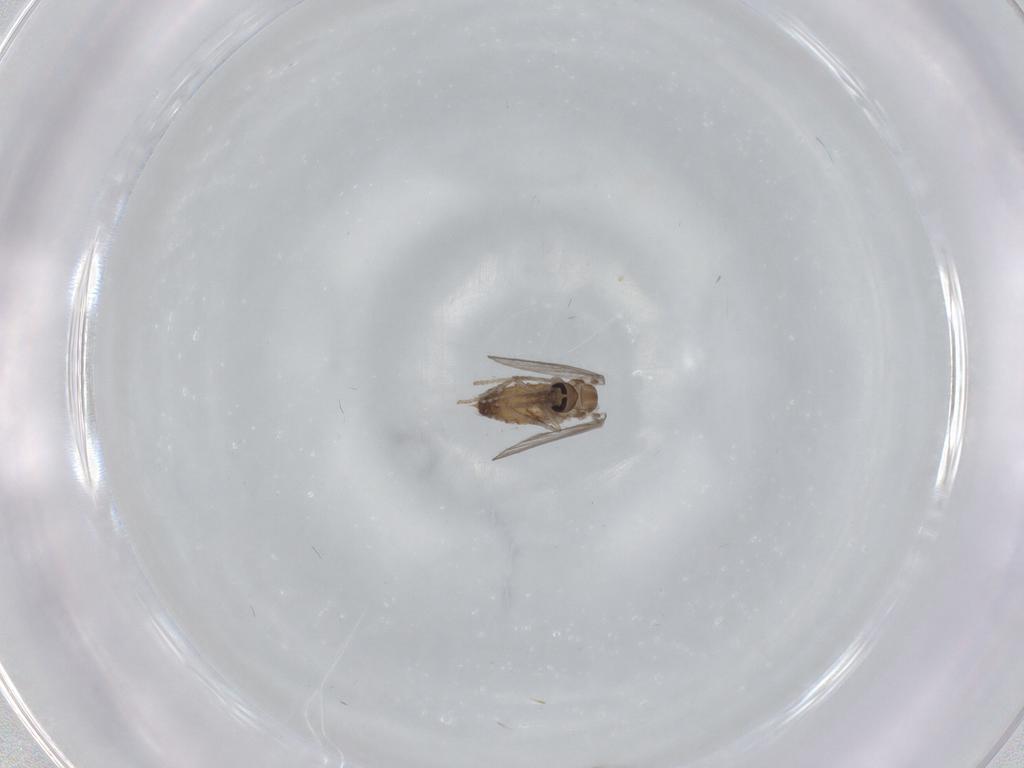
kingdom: Animalia
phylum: Arthropoda
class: Insecta
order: Diptera
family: Psychodidae
